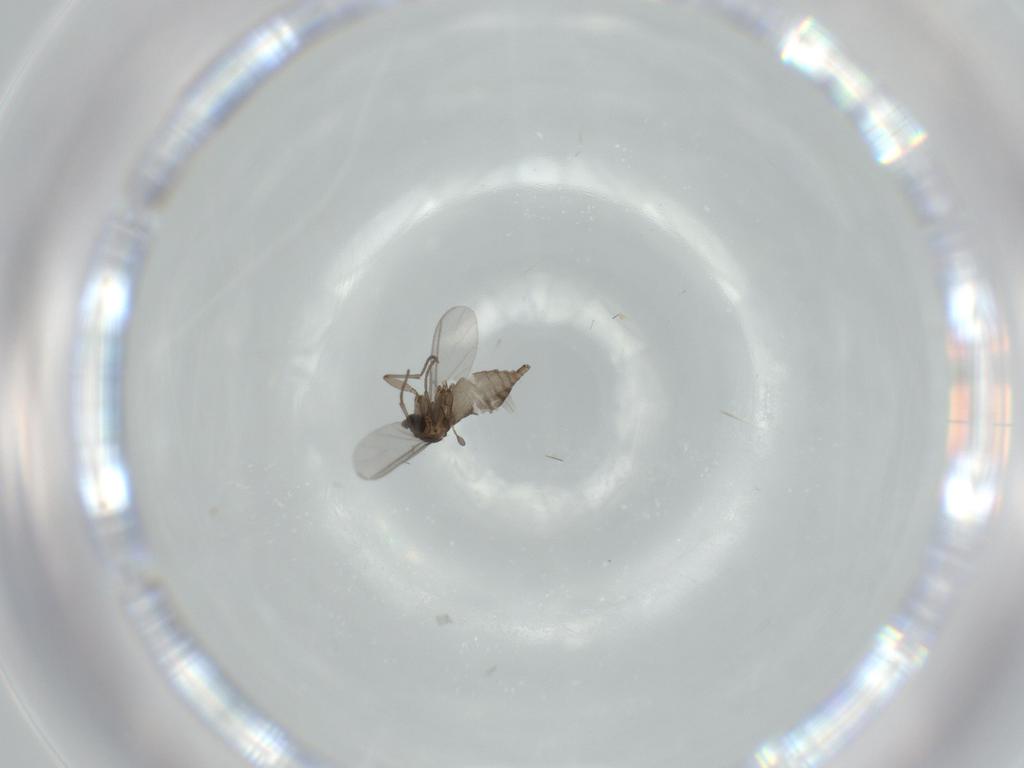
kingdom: Animalia
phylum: Arthropoda
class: Insecta
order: Diptera
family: Sciaridae
